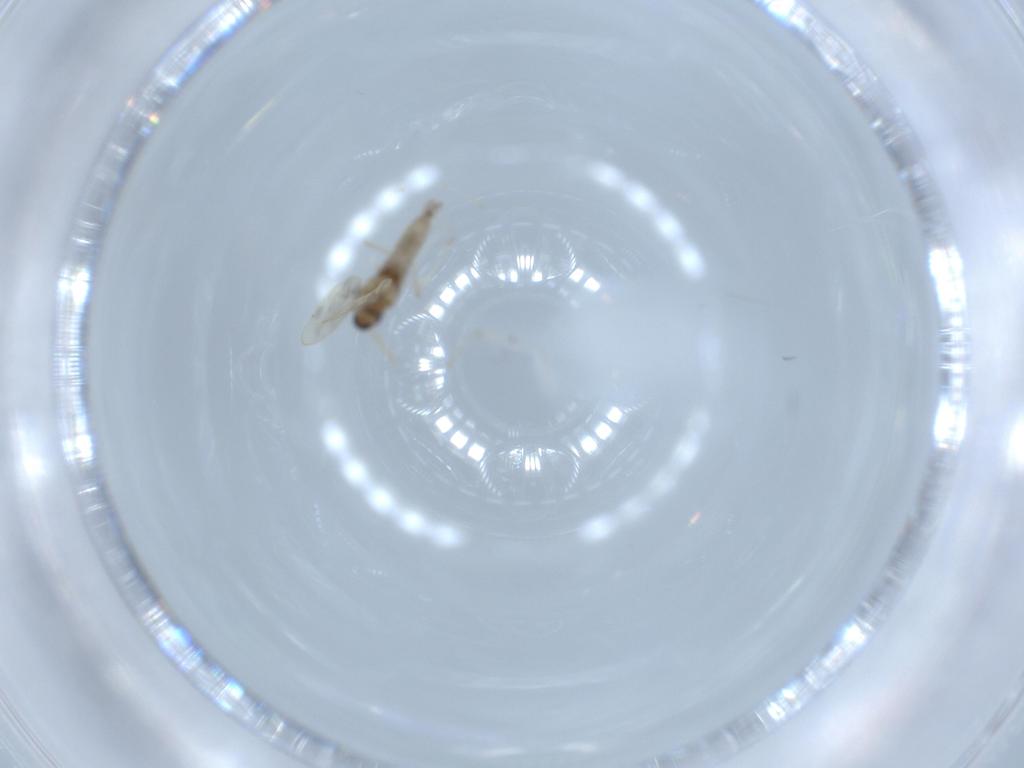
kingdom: Animalia
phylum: Arthropoda
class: Insecta
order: Diptera
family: Cecidomyiidae
